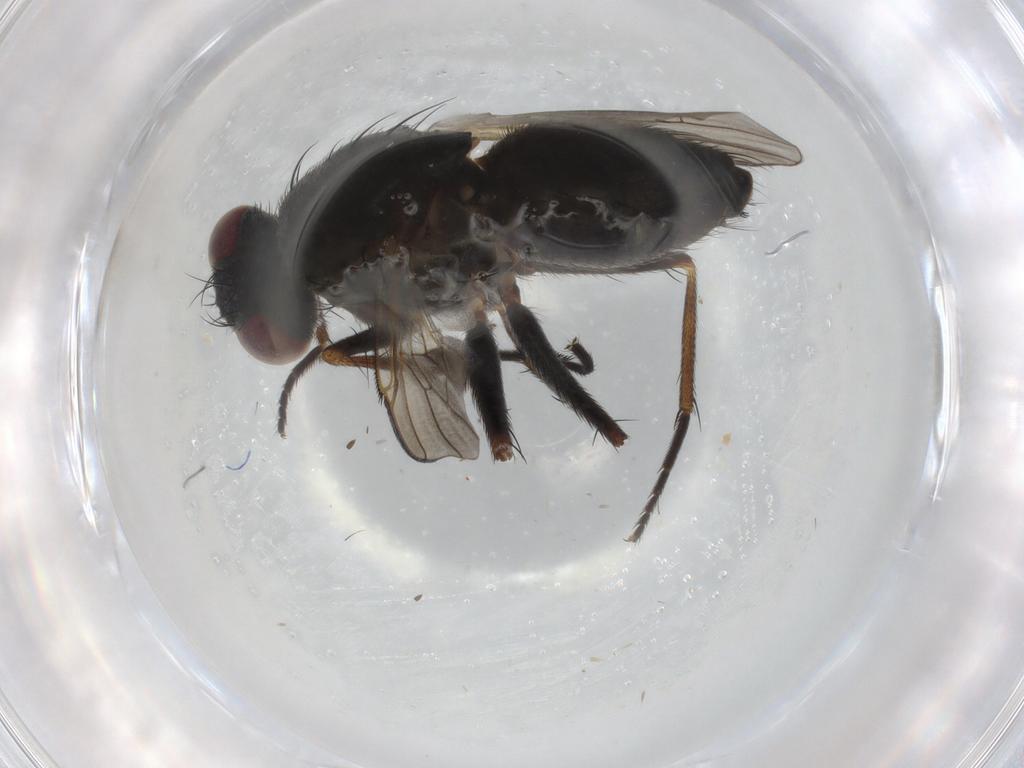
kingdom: Animalia
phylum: Arthropoda
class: Insecta
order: Diptera
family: Muscidae
